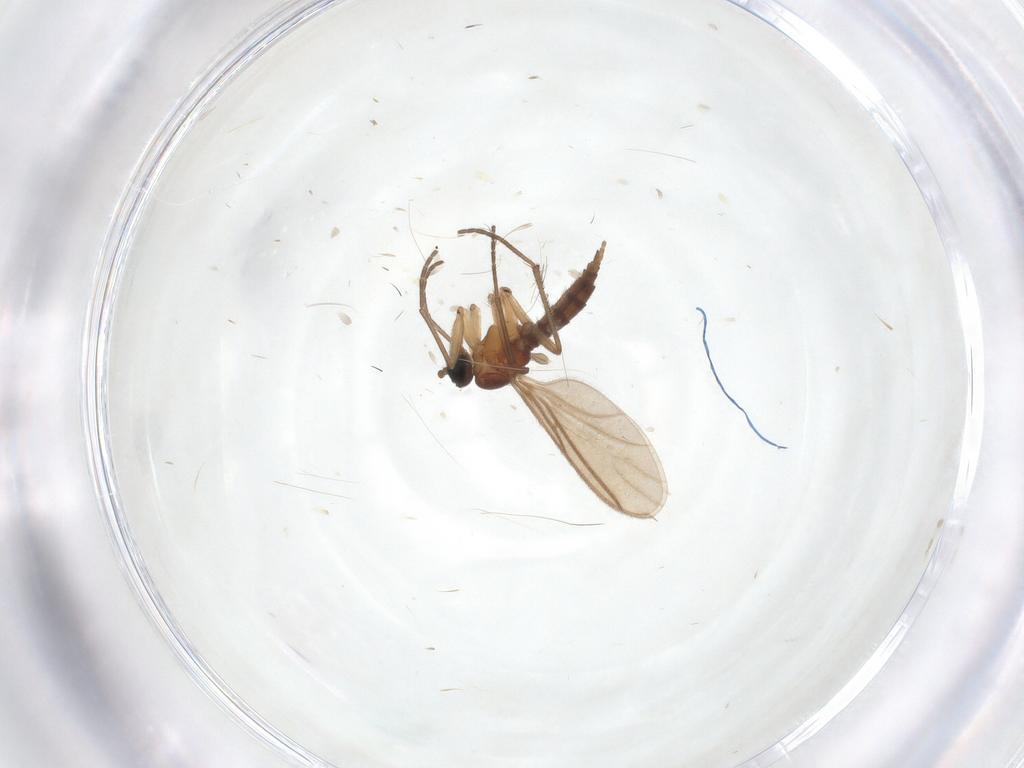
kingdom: Animalia
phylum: Arthropoda
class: Insecta
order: Diptera
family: Sciaridae
